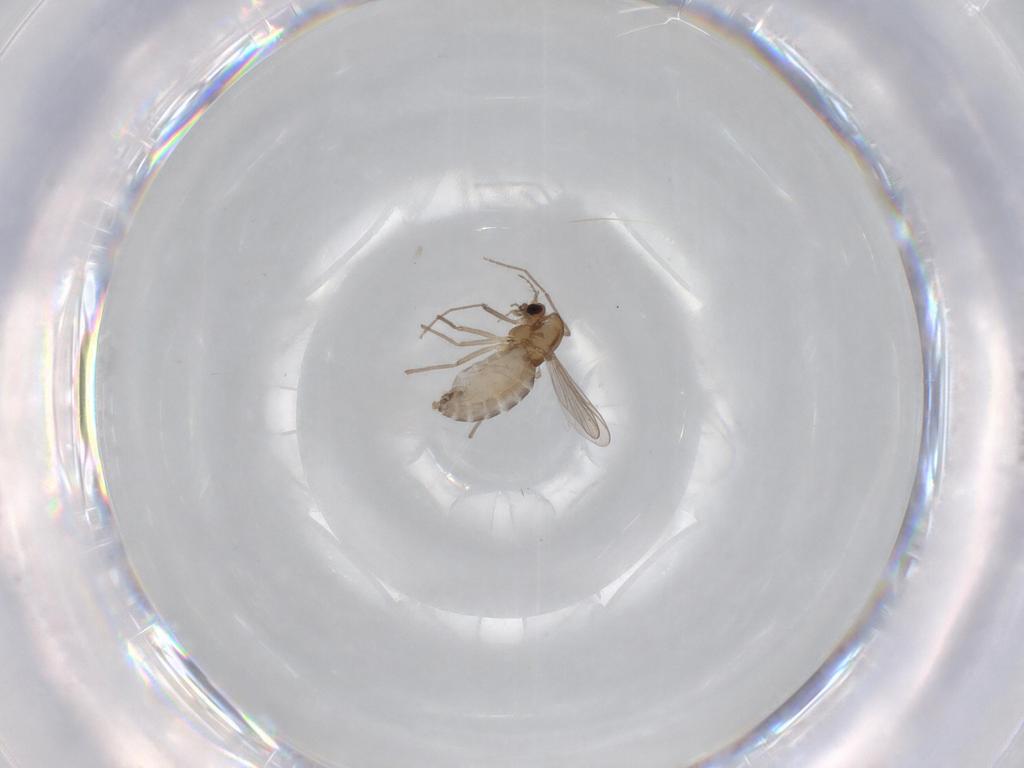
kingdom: Animalia
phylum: Arthropoda
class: Insecta
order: Diptera
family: Chironomidae
